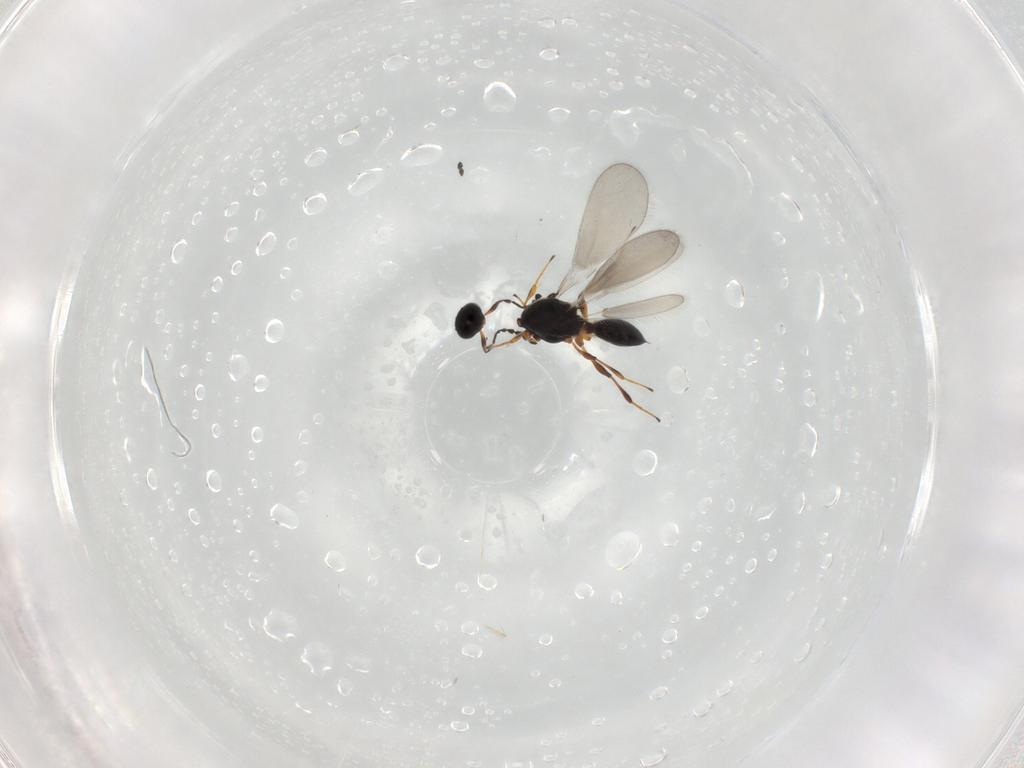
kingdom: Animalia
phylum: Arthropoda
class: Insecta
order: Hymenoptera
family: Platygastridae
